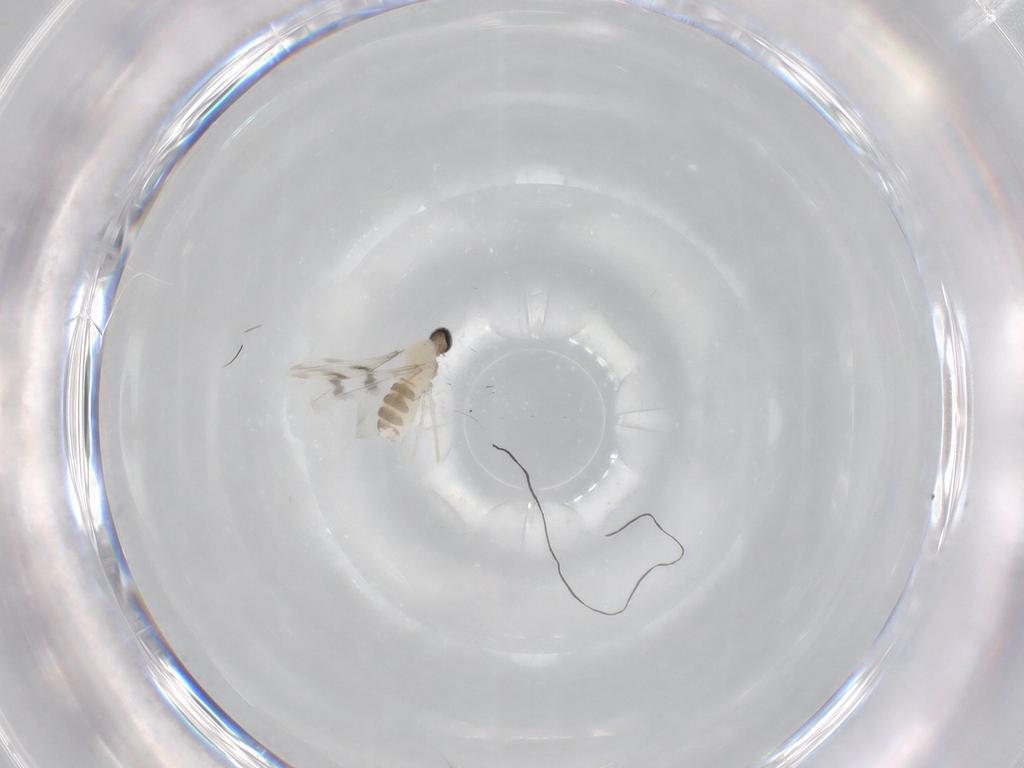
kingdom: Animalia
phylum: Arthropoda
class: Insecta
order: Diptera
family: Cecidomyiidae
